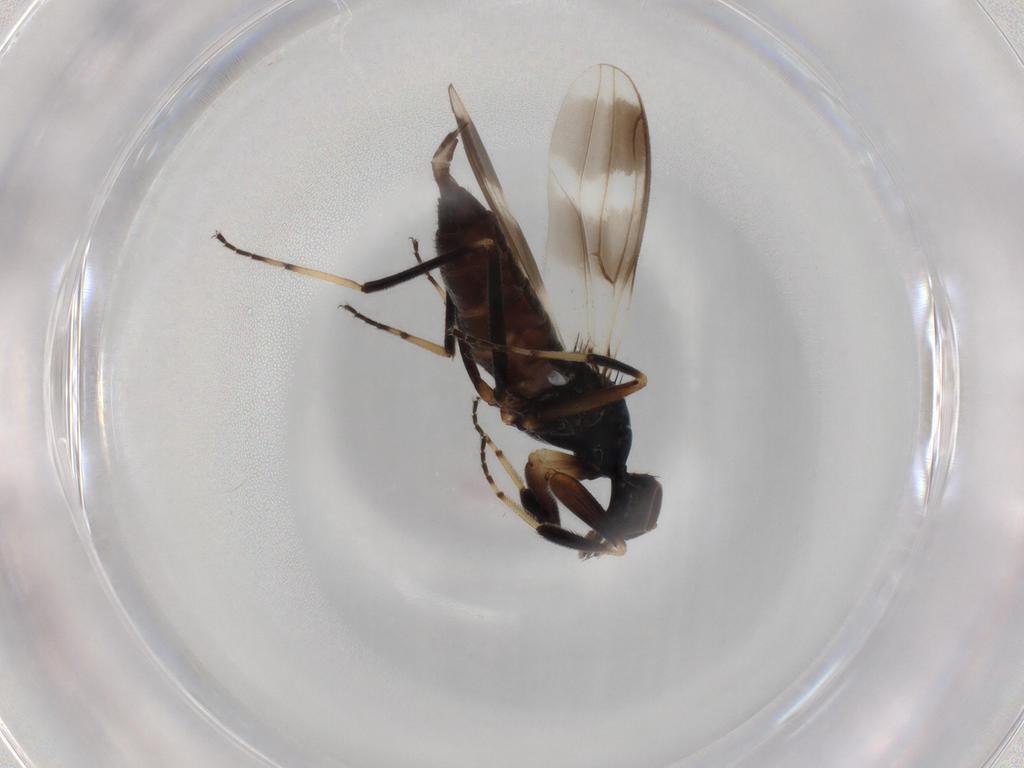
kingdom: Animalia
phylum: Arthropoda
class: Insecta
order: Diptera
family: Hybotidae
